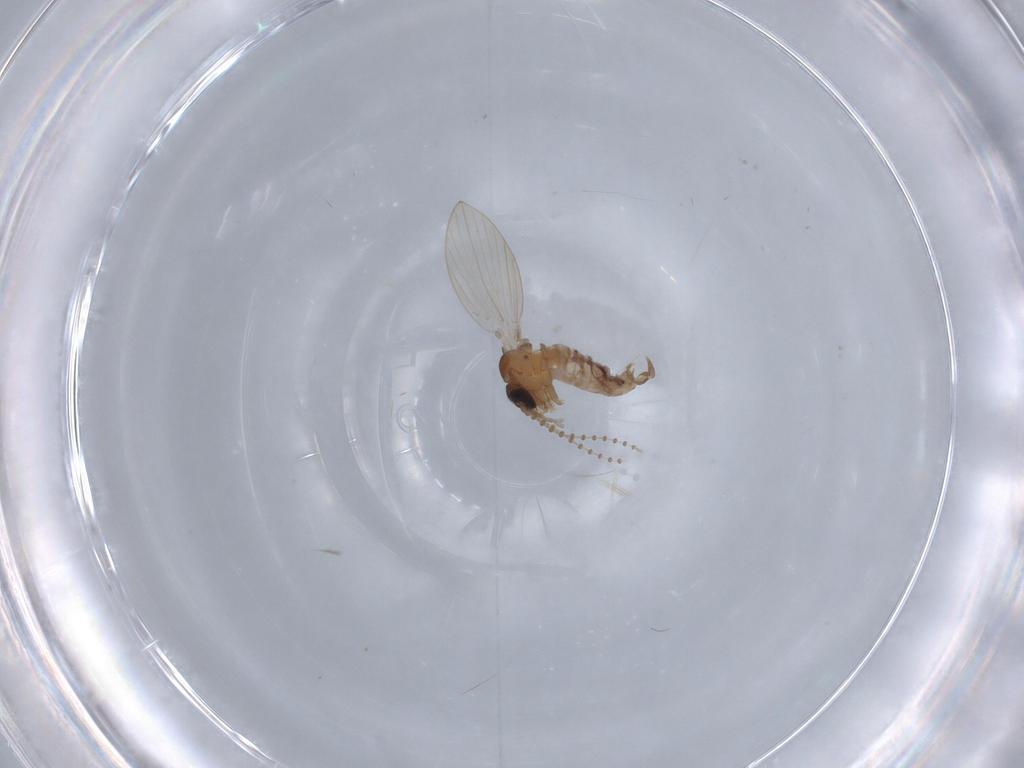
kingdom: Animalia
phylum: Arthropoda
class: Insecta
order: Diptera
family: Psychodidae
